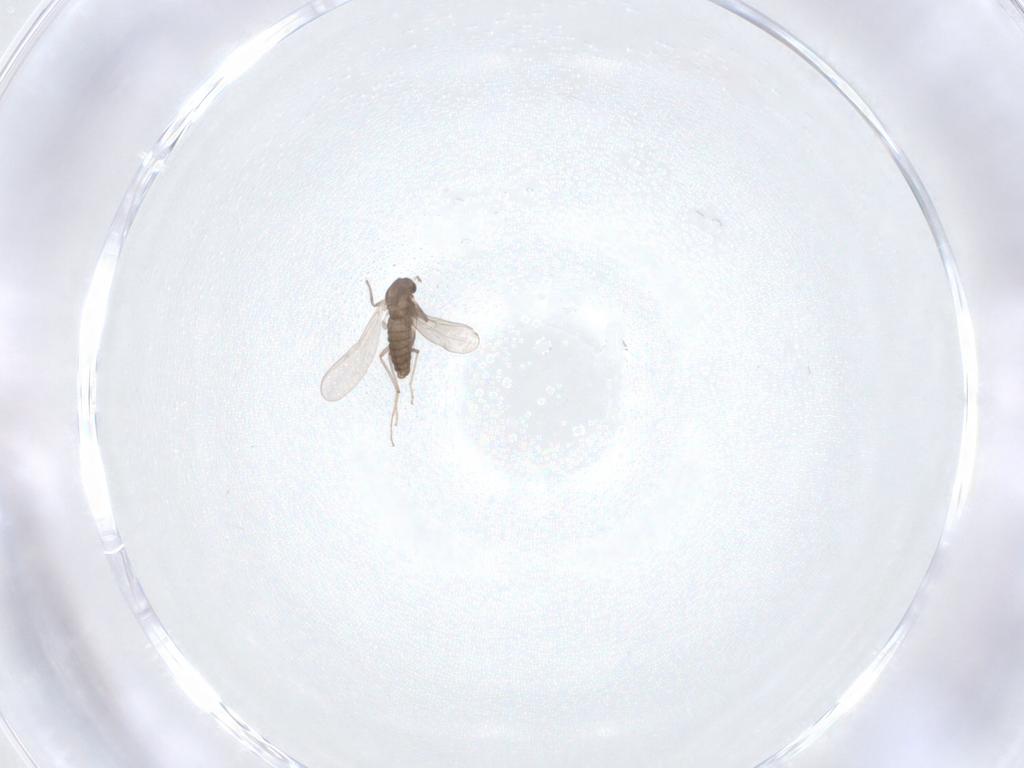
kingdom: Animalia
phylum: Arthropoda
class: Insecta
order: Diptera
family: Chironomidae
